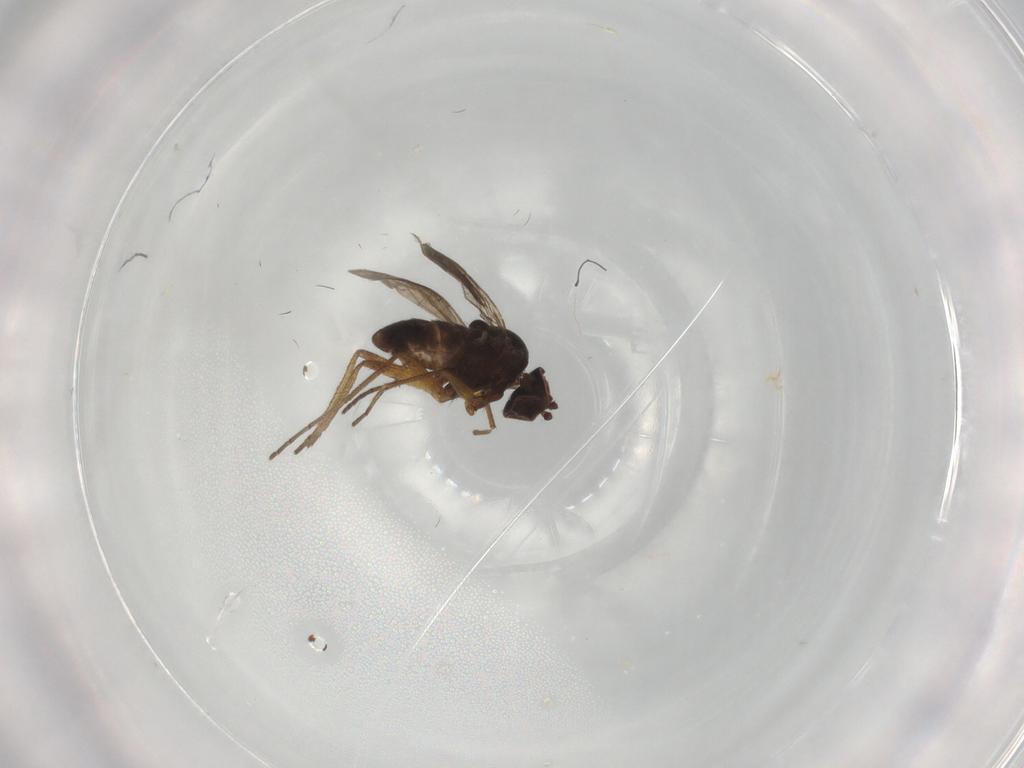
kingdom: Animalia
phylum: Arthropoda
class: Insecta
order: Diptera
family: Dolichopodidae
